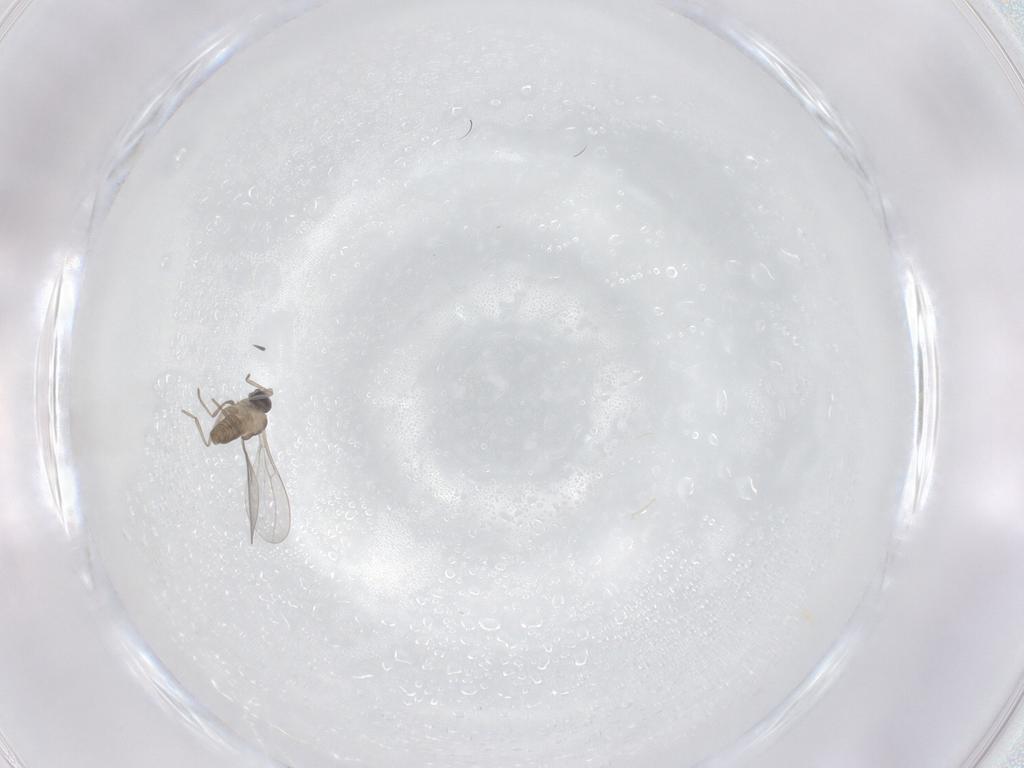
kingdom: Animalia
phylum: Arthropoda
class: Insecta
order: Diptera
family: Cecidomyiidae
